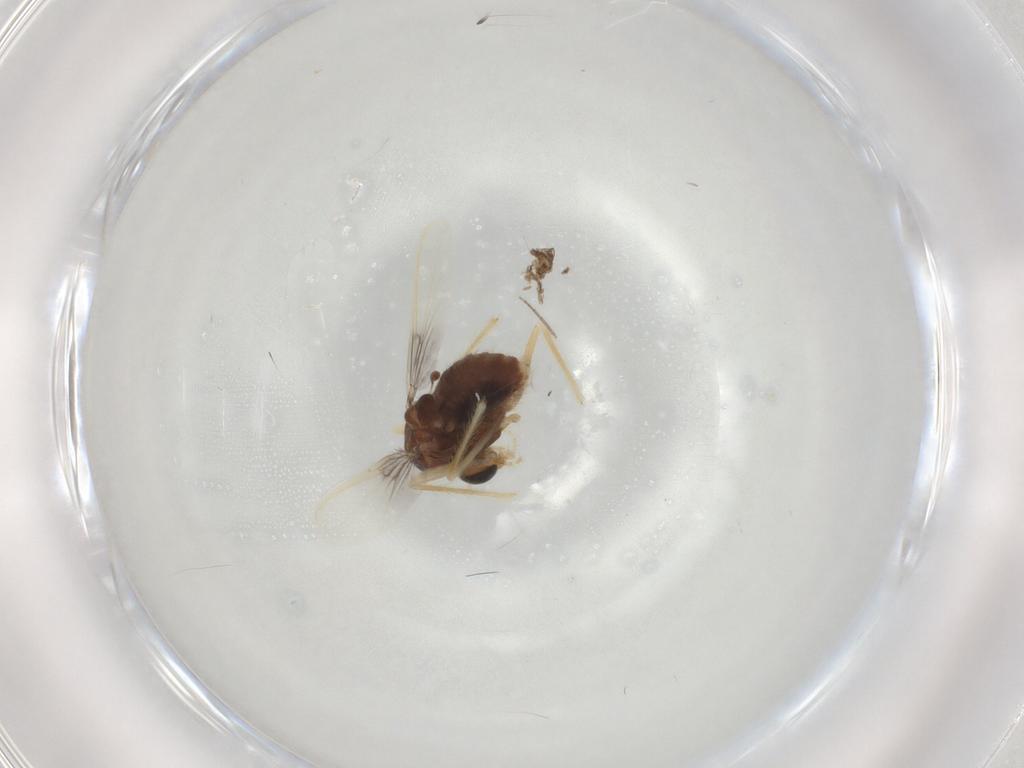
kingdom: Animalia
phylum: Arthropoda
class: Insecta
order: Diptera
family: Chironomidae
